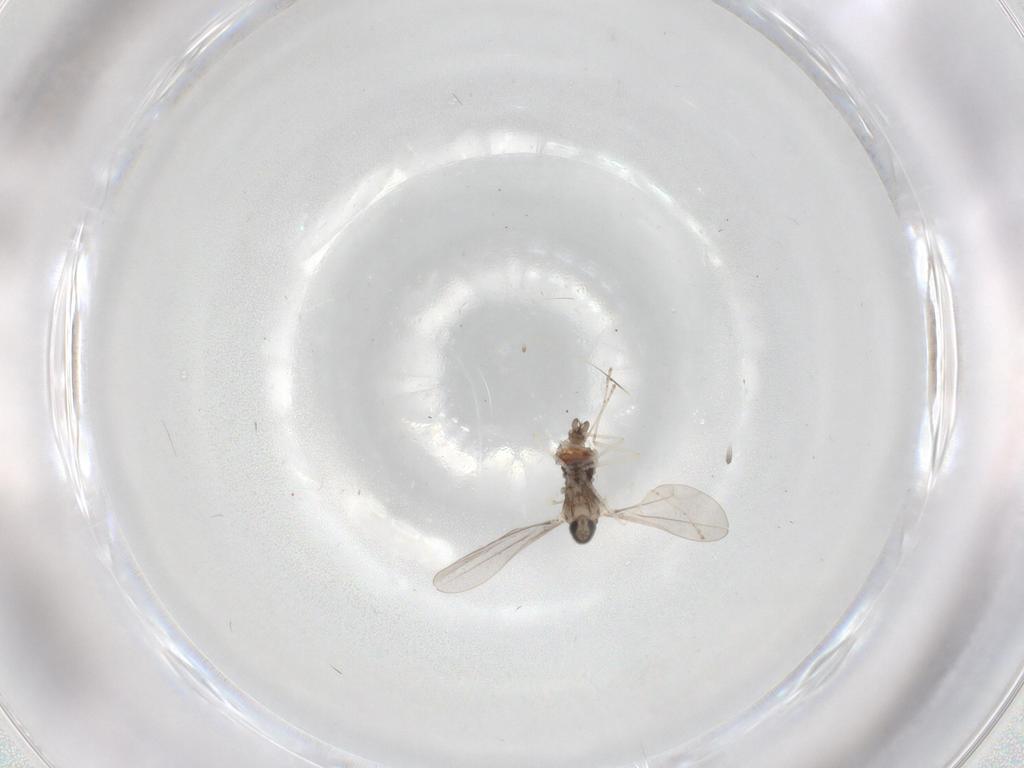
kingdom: Animalia
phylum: Arthropoda
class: Insecta
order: Diptera
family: Cecidomyiidae
